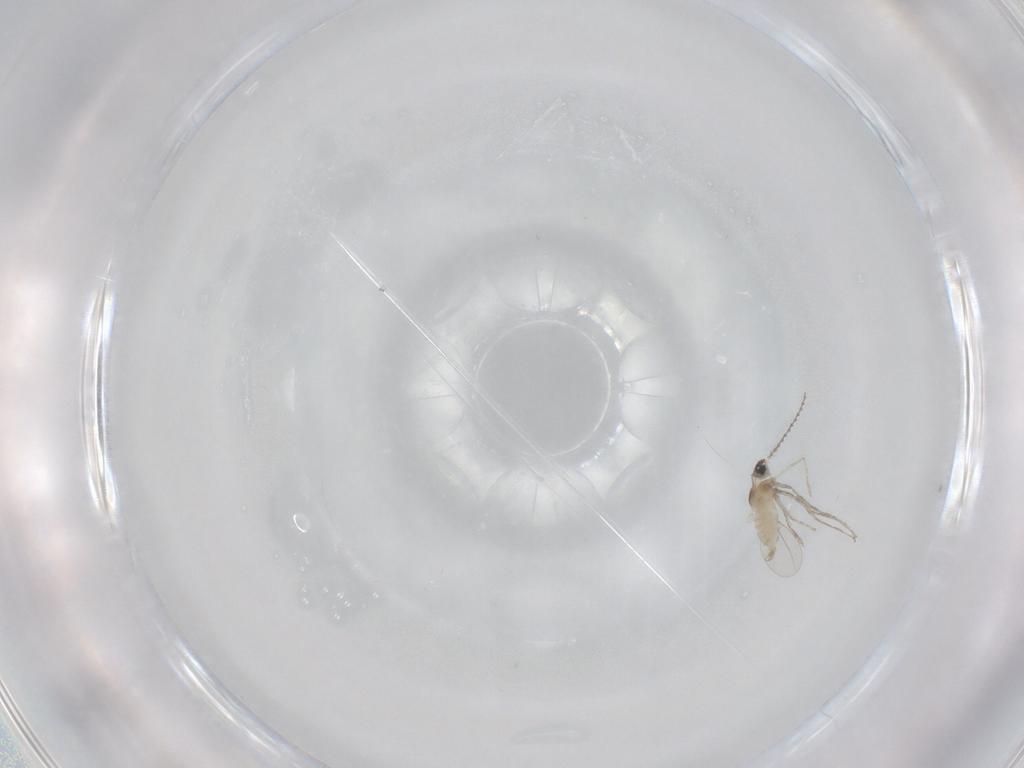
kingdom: Animalia
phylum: Arthropoda
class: Insecta
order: Diptera
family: Cecidomyiidae
